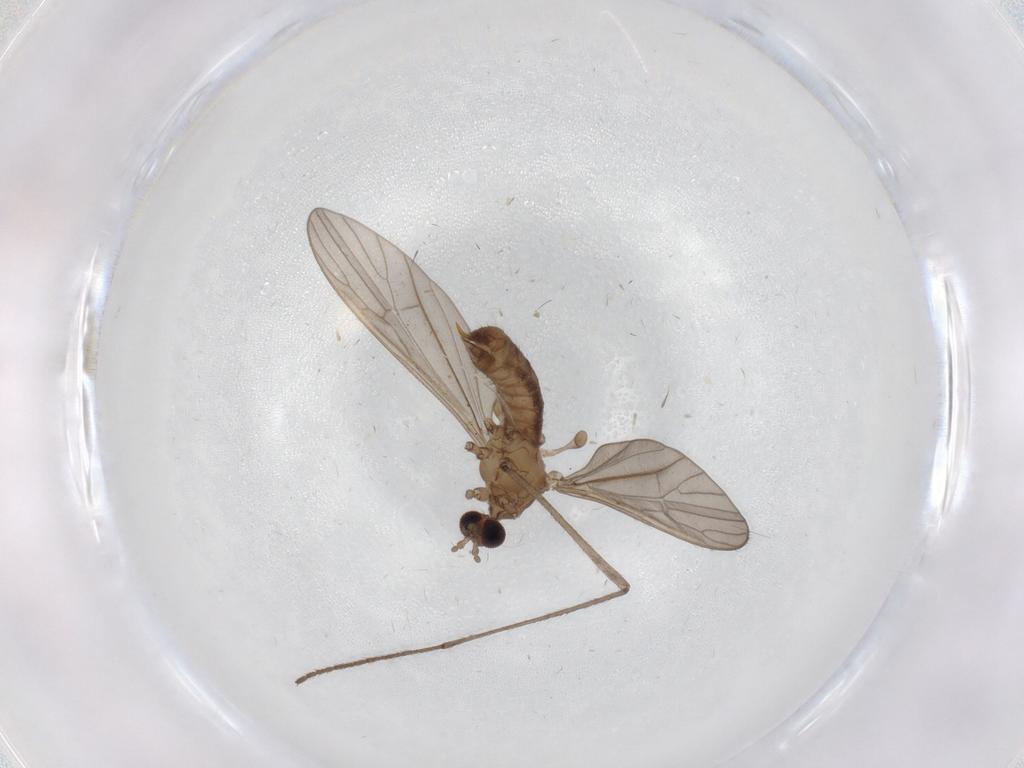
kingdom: Animalia
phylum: Arthropoda
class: Insecta
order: Diptera
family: Limoniidae
